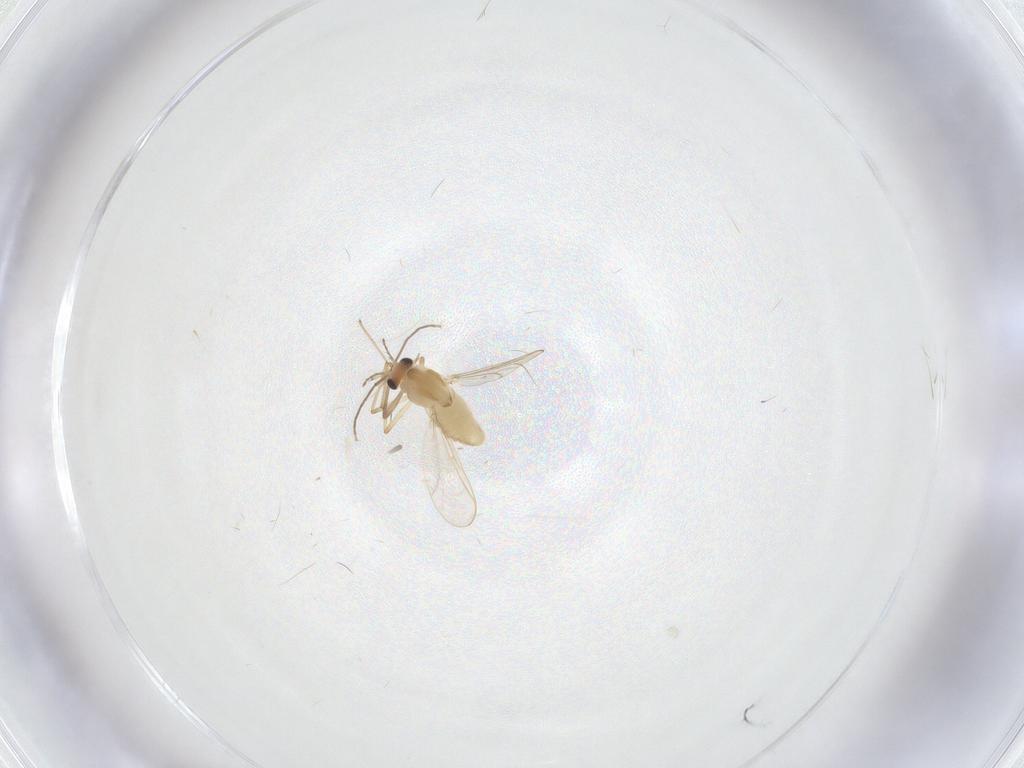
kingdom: Animalia
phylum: Arthropoda
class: Insecta
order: Diptera
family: Chironomidae
